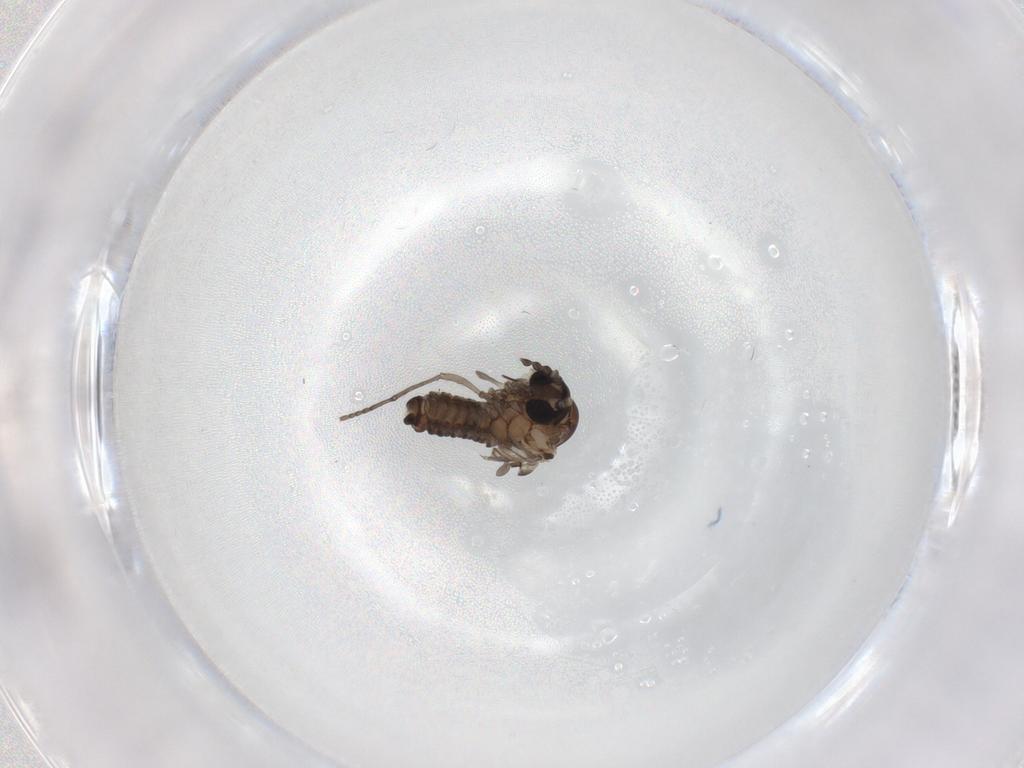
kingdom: Animalia
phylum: Arthropoda
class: Insecta
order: Diptera
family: Psychodidae
